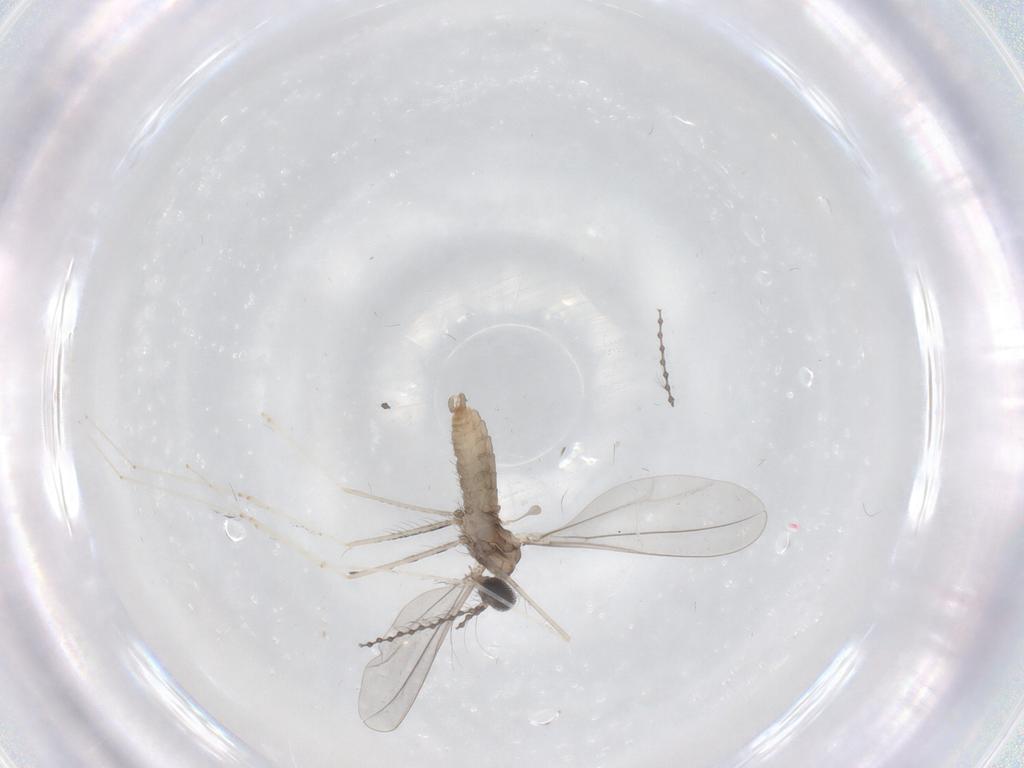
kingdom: Animalia
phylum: Arthropoda
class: Insecta
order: Diptera
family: Cecidomyiidae
